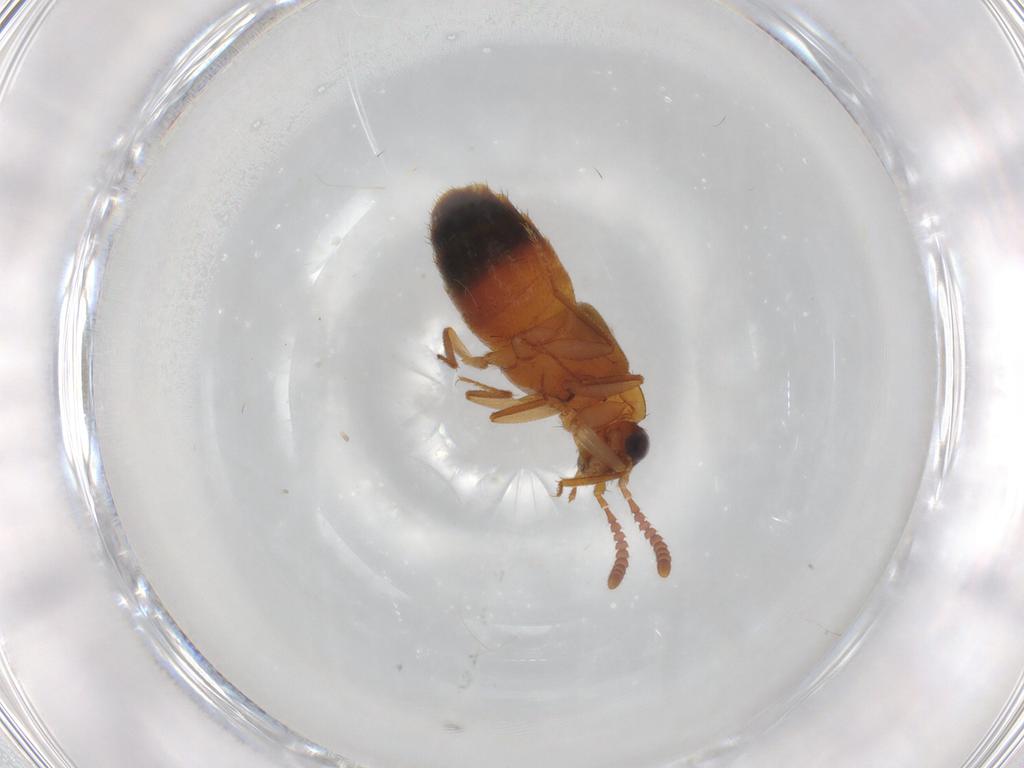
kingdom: Animalia
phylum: Arthropoda
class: Insecta
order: Coleoptera
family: Staphylinidae
